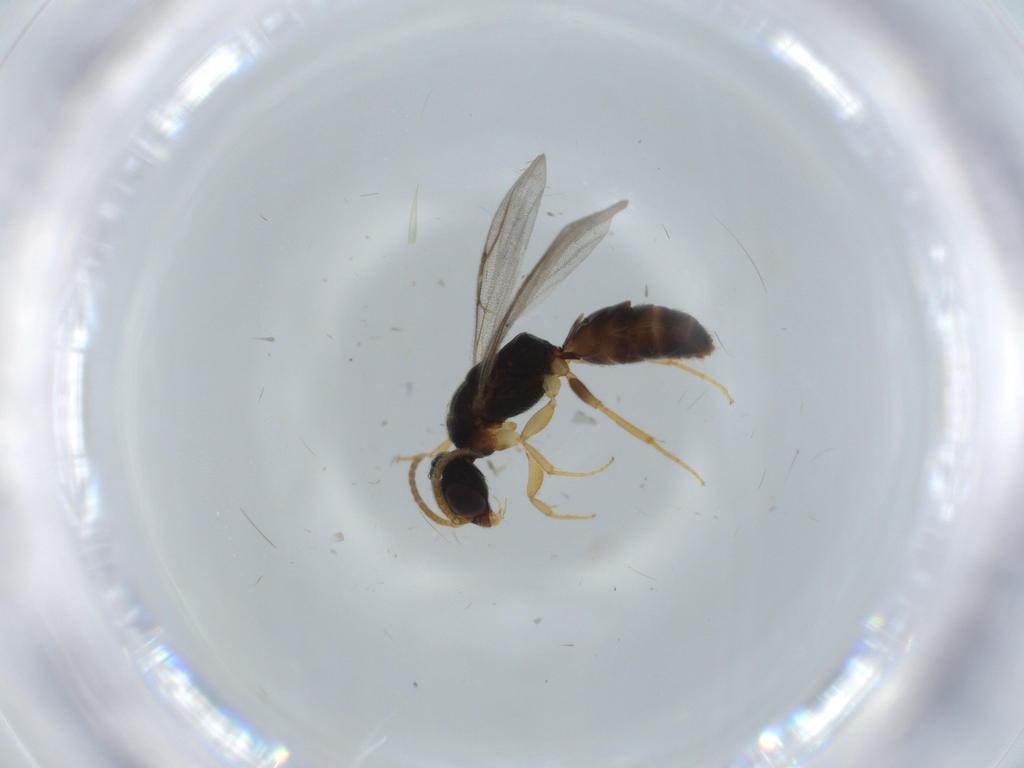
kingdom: Animalia
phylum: Arthropoda
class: Insecta
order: Hymenoptera
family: Bethylidae
